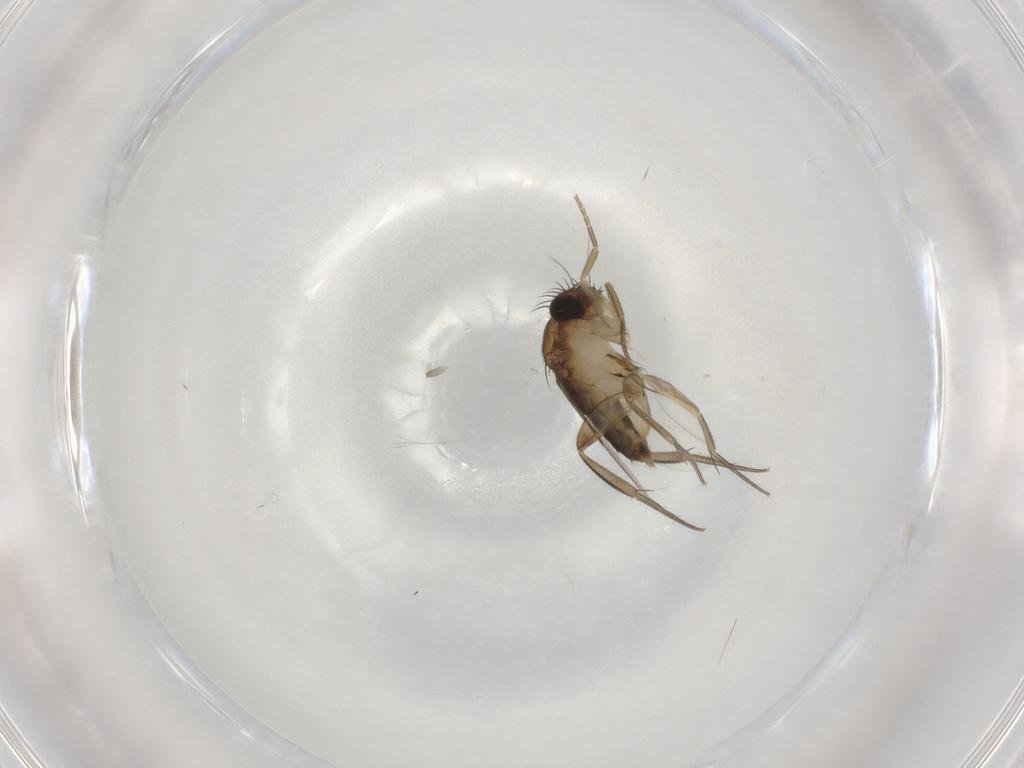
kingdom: Animalia
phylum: Arthropoda
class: Insecta
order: Diptera
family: Phoridae
